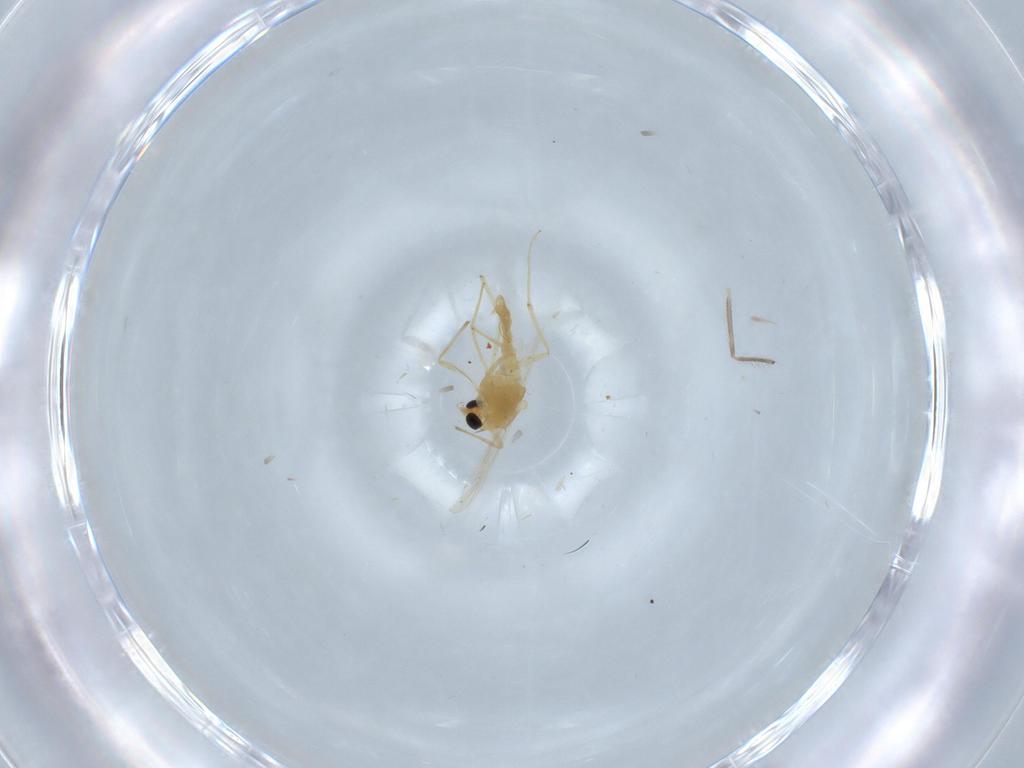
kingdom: Animalia
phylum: Arthropoda
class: Insecta
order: Diptera
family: Chironomidae
